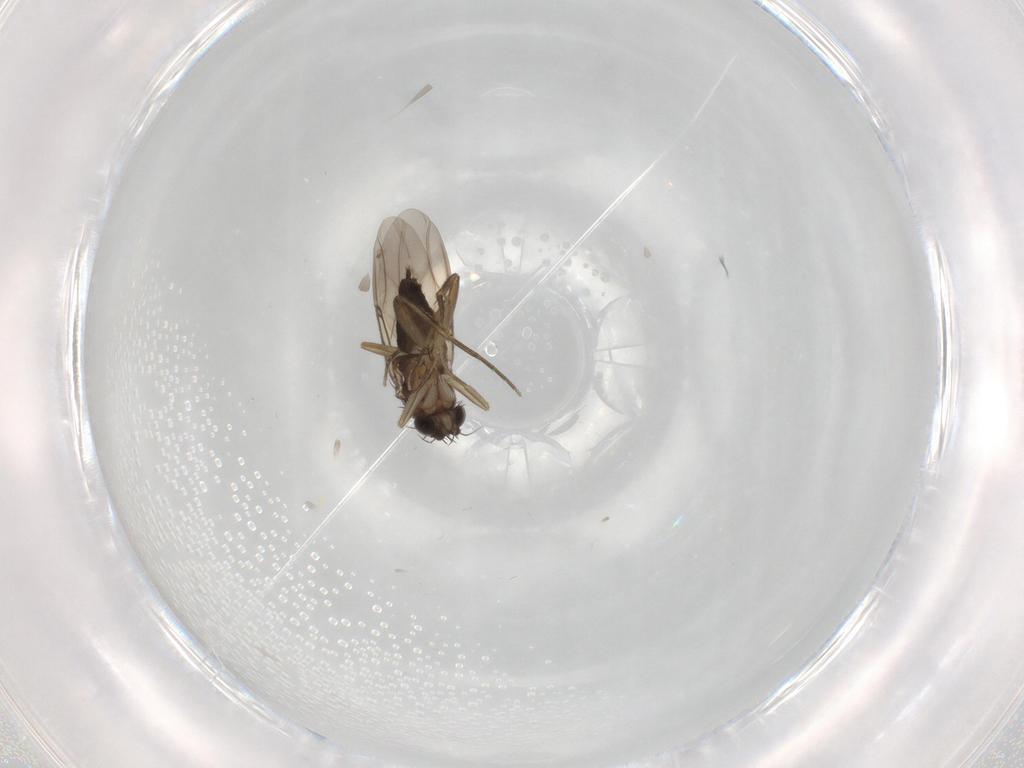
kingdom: Animalia
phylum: Arthropoda
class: Insecta
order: Diptera
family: Phoridae
